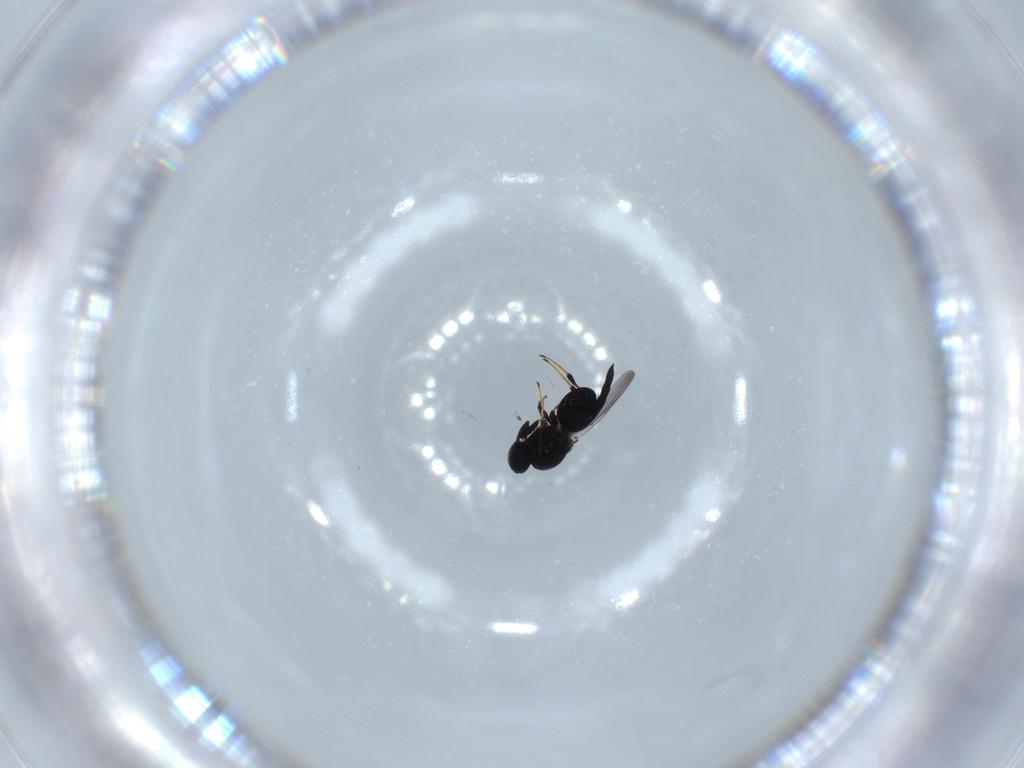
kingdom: Animalia
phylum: Arthropoda
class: Insecta
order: Hymenoptera
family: Platygastridae
